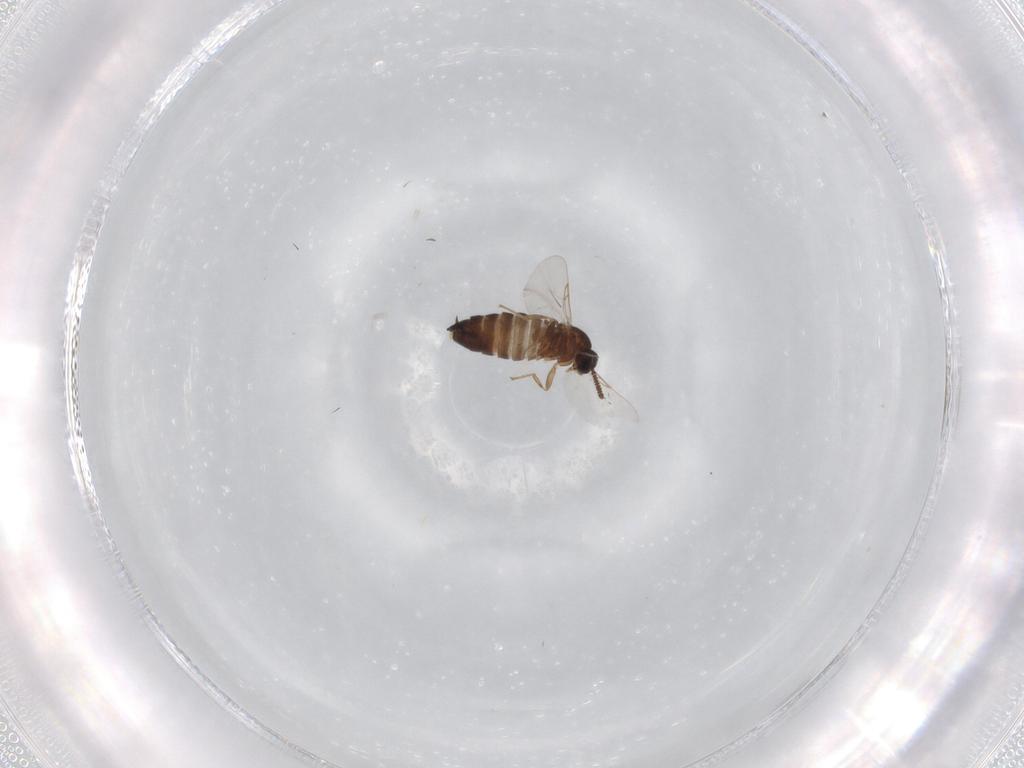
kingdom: Animalia
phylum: Arthropoda
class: Insecta
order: Diptera
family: Scatopsidae
